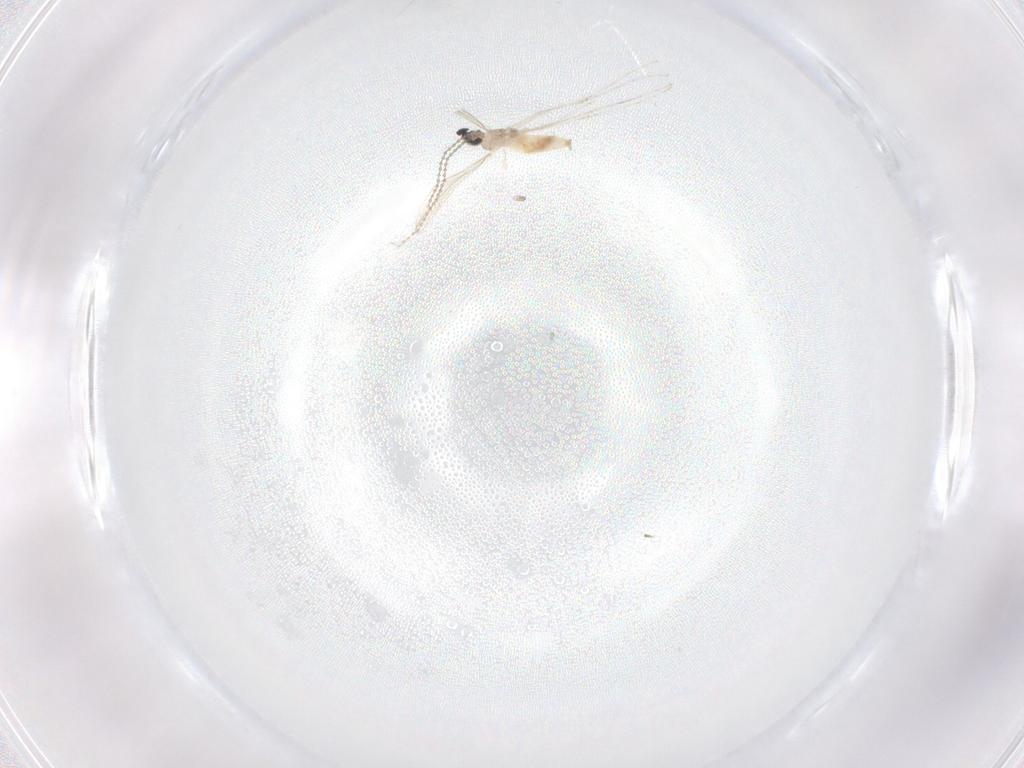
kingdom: Animalia
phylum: Arthropoda
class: Insecta
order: Diptera
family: Cecidomyiidae
